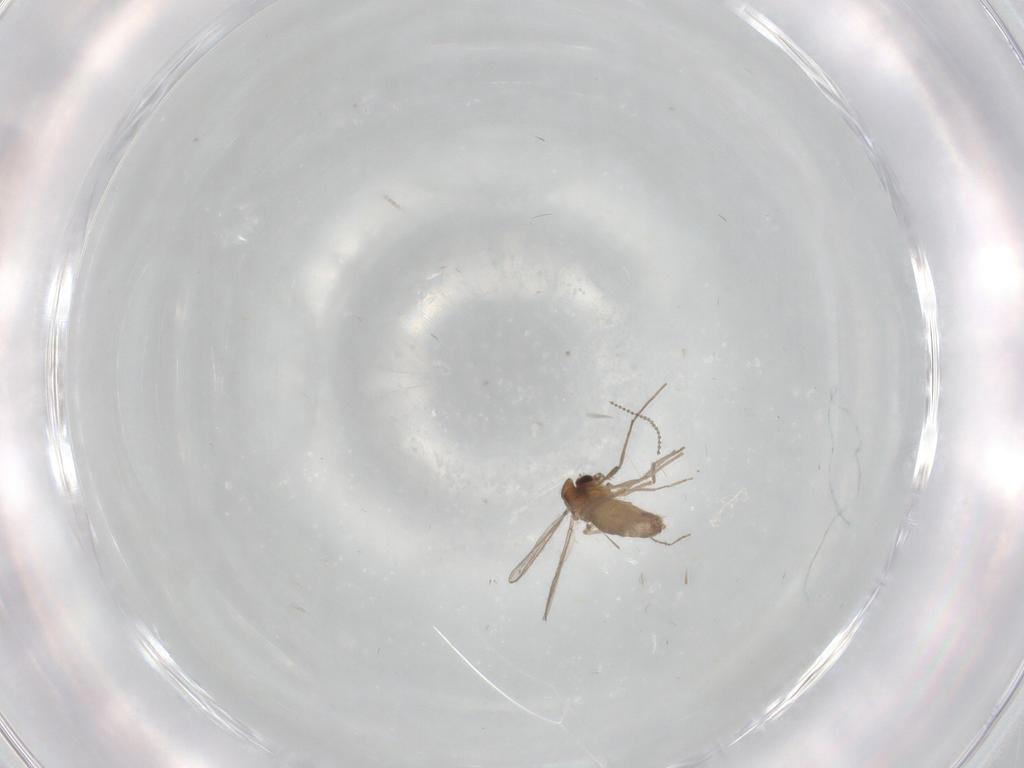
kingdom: Animalia
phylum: Arthropoda
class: Insecta
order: Diptera
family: Chironomidae
